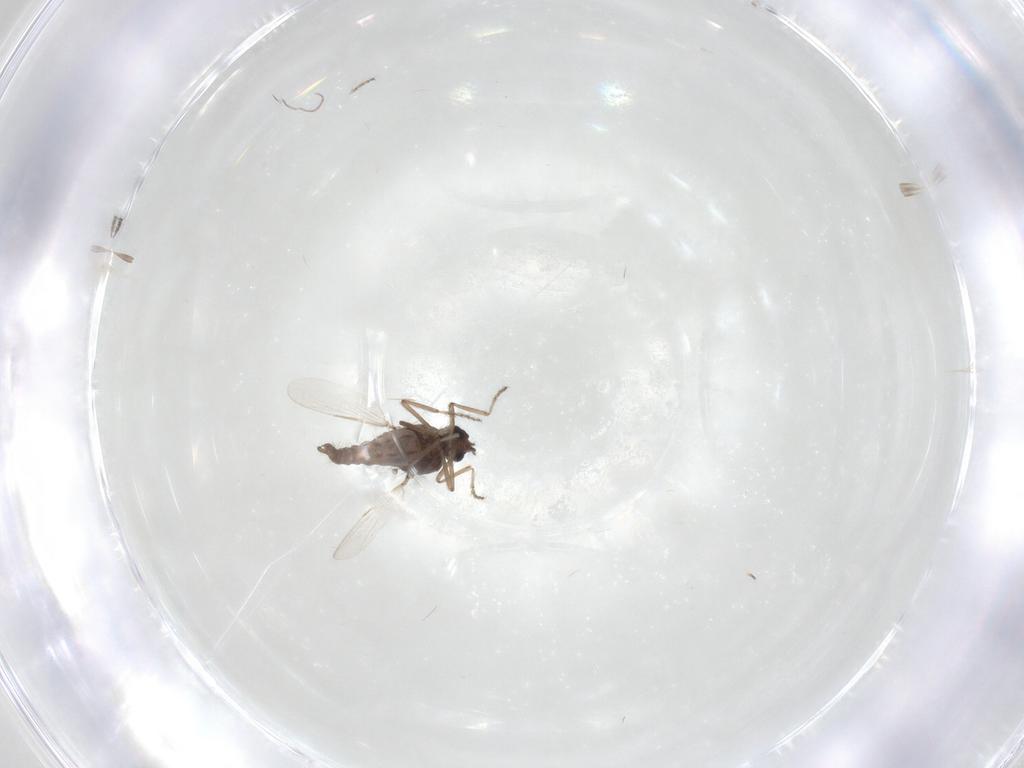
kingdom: Animalia
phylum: Arthropoda
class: Insecta
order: Diptera
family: Ceratopogonidae
